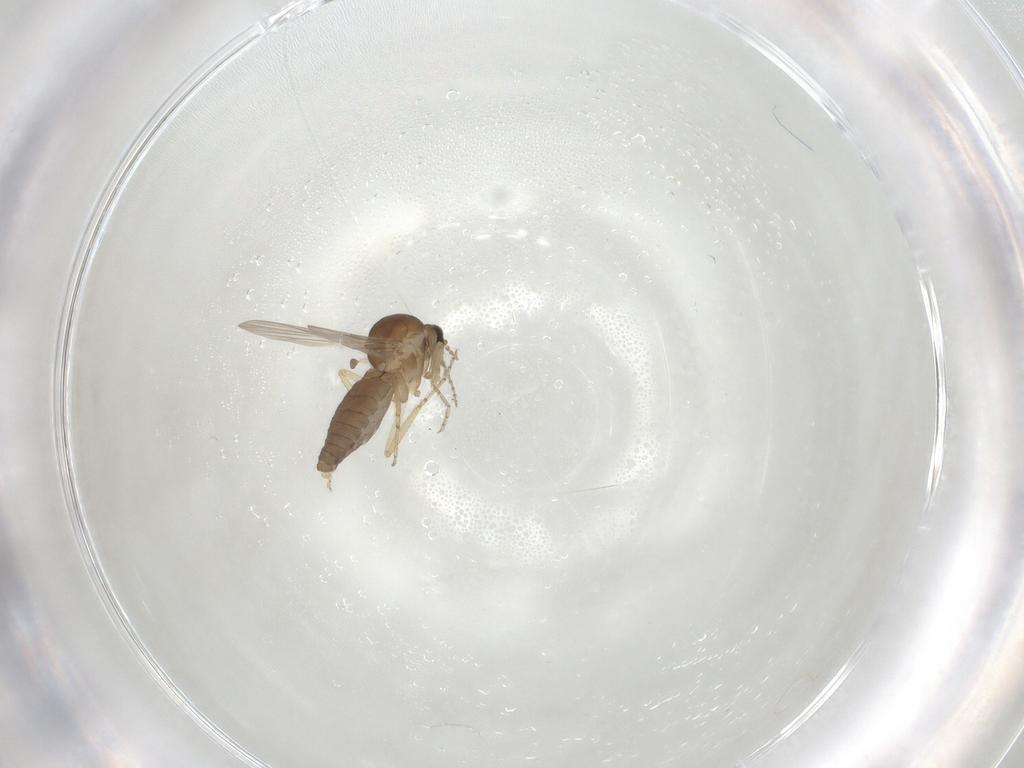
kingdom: Animalia
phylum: Arthropoda
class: Insecta
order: Diptera
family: Ceratopogonidae
